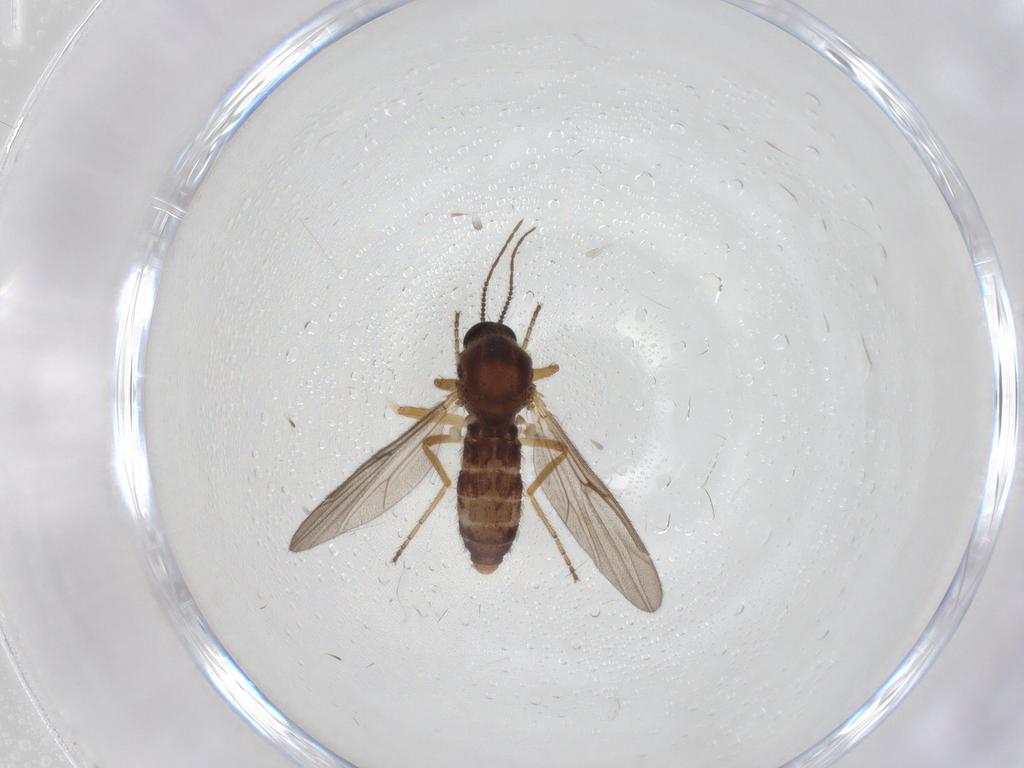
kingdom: Animalia
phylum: Arthropoda
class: Insecta
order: Diptera
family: Ceratopogonidae
